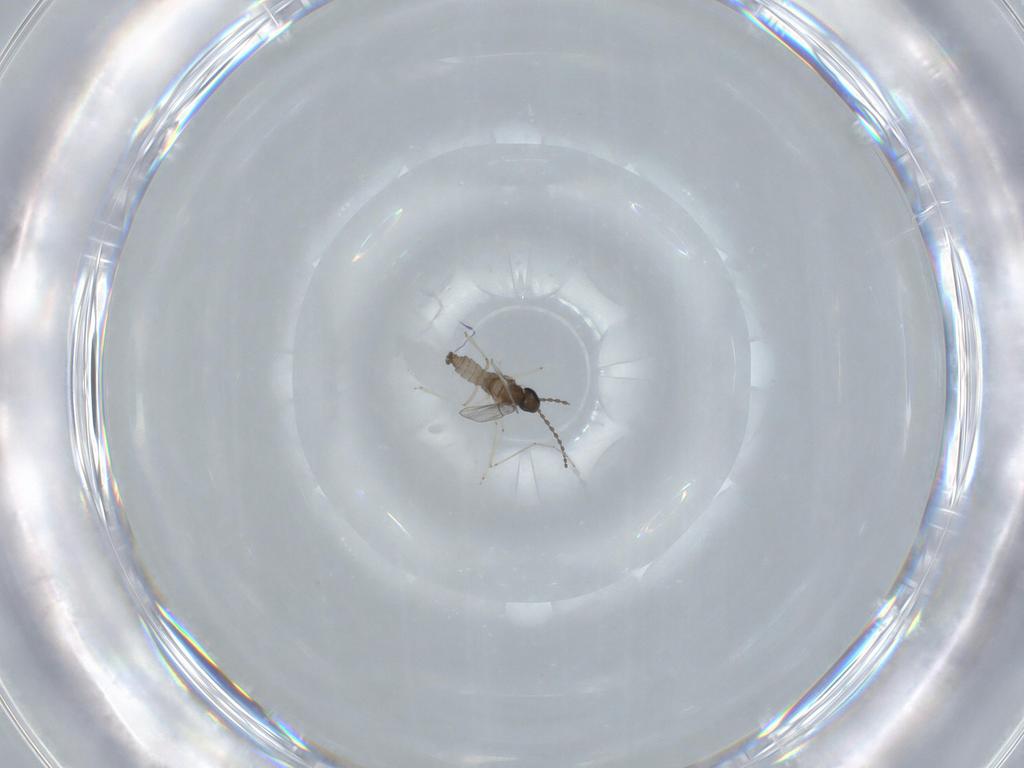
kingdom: Animalia
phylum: Arthropoda
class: Insecta
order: Diptera
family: Cecidomyiidae
